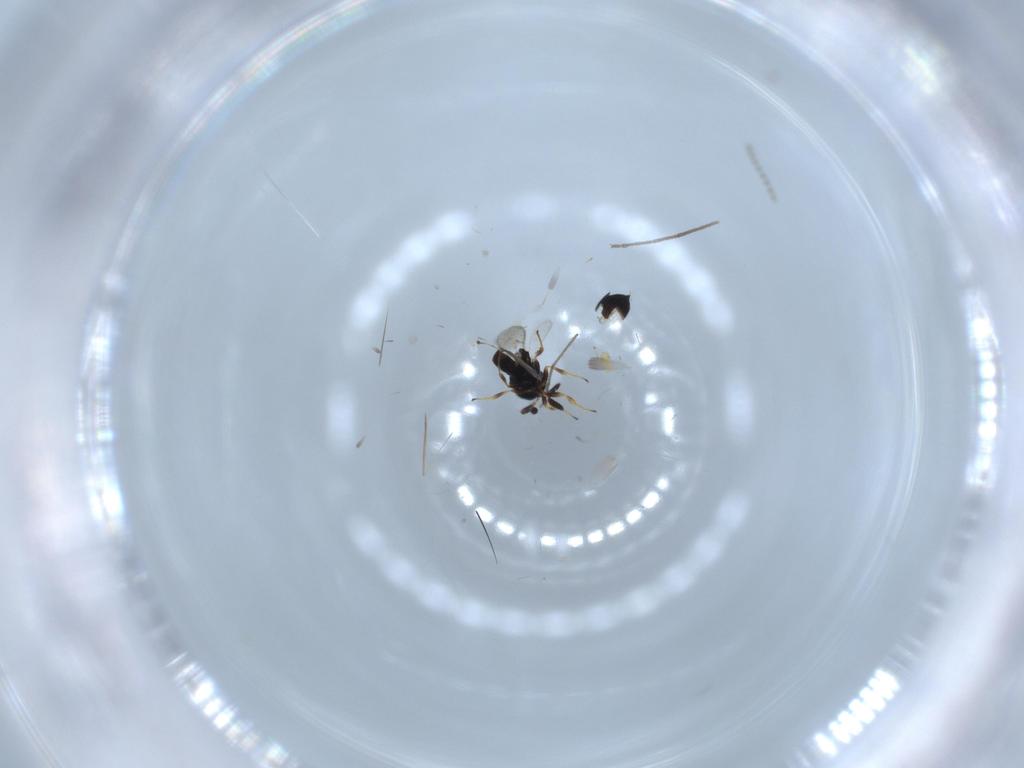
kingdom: Animalia
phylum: Arthropoda
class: Insecta
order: Diptera
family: Cecidomyiidae
